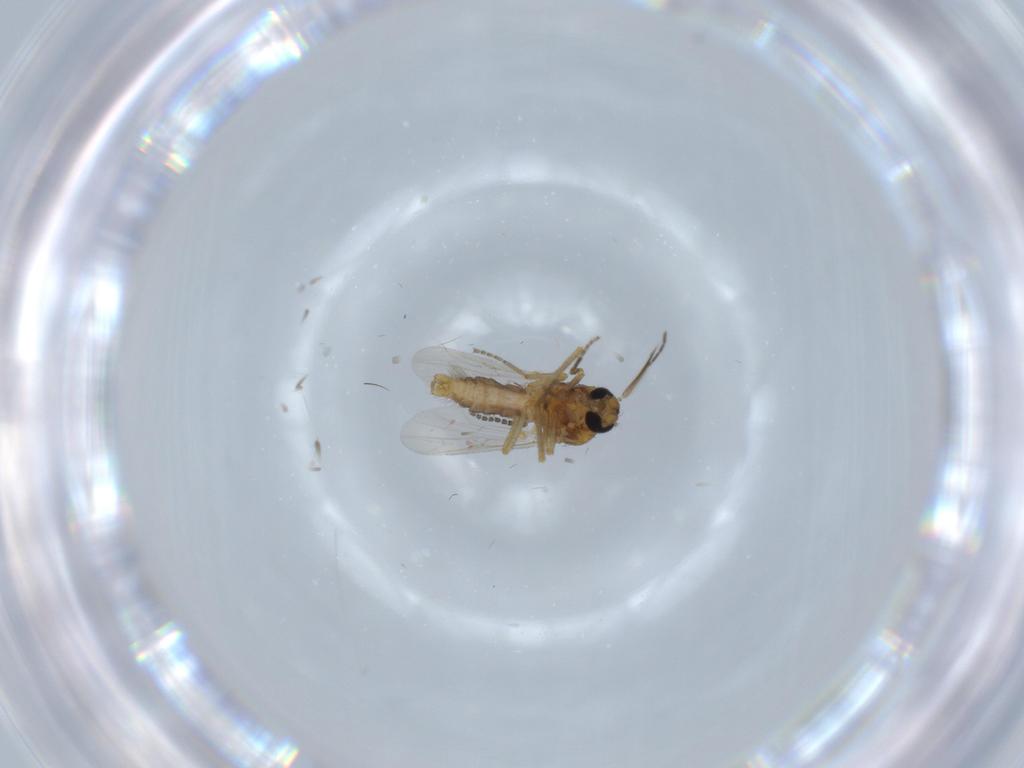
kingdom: Animalia
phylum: Arthropoda
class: Insecta
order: Diptera
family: Ceratopogonidae
